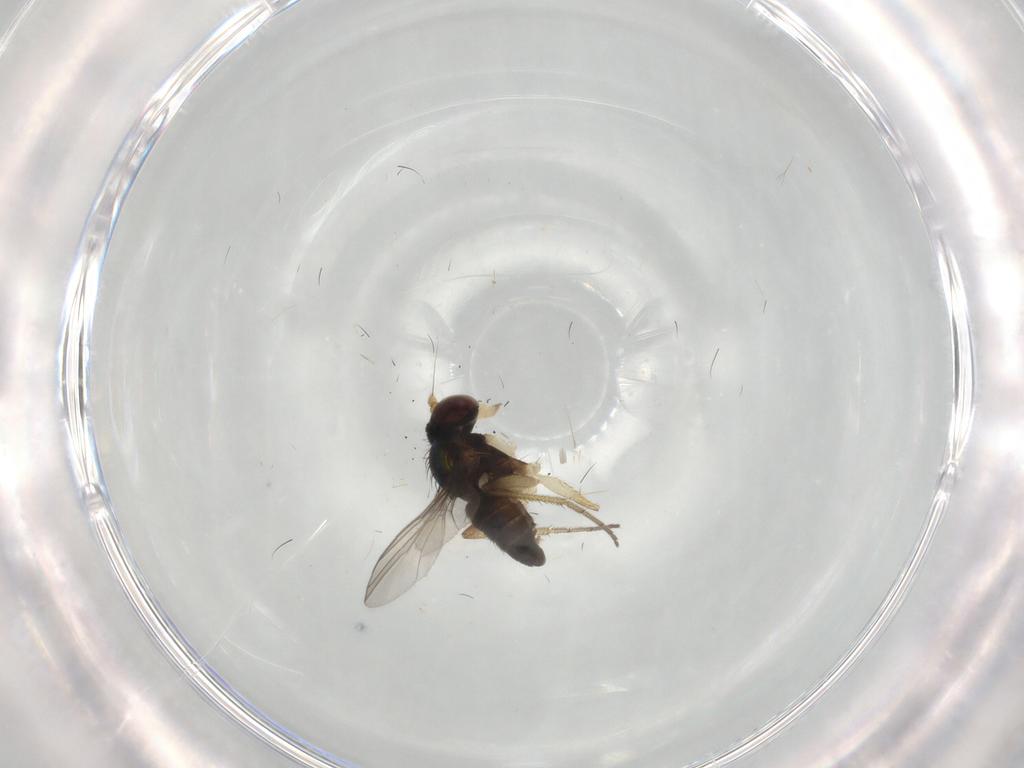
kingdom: Animalia
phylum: Arthropoda
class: Insecta
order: Diptera
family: Dolichopodidae
